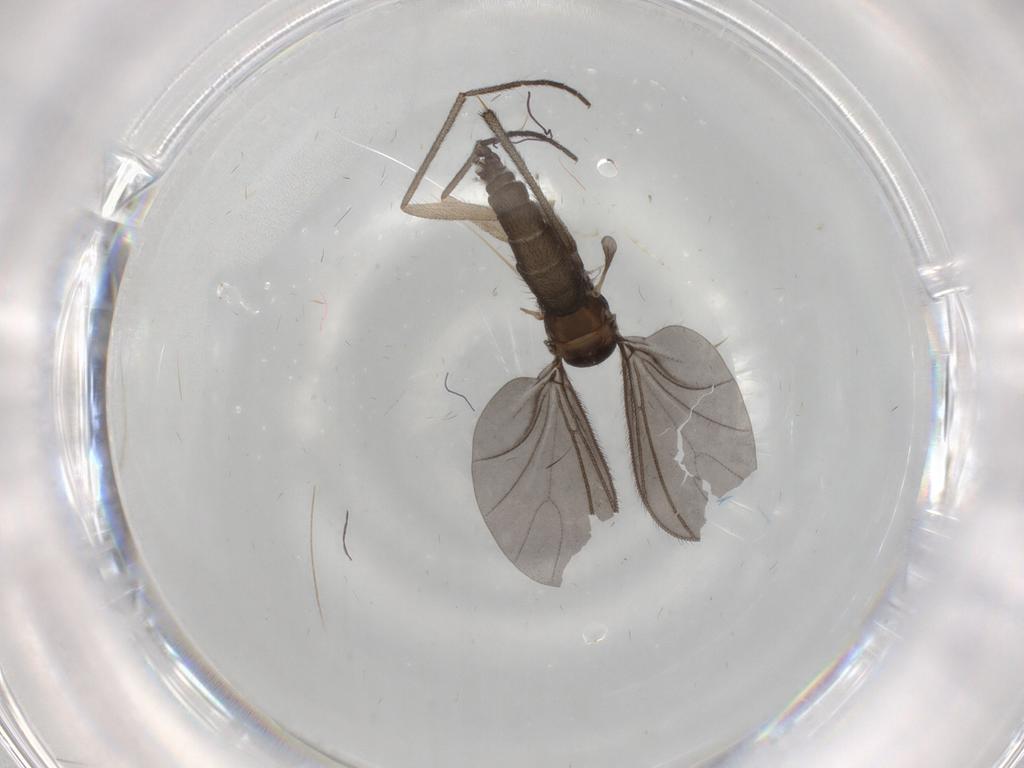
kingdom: Animalia
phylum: Arthropoda
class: Insecta
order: Diptera
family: Sciaridae
